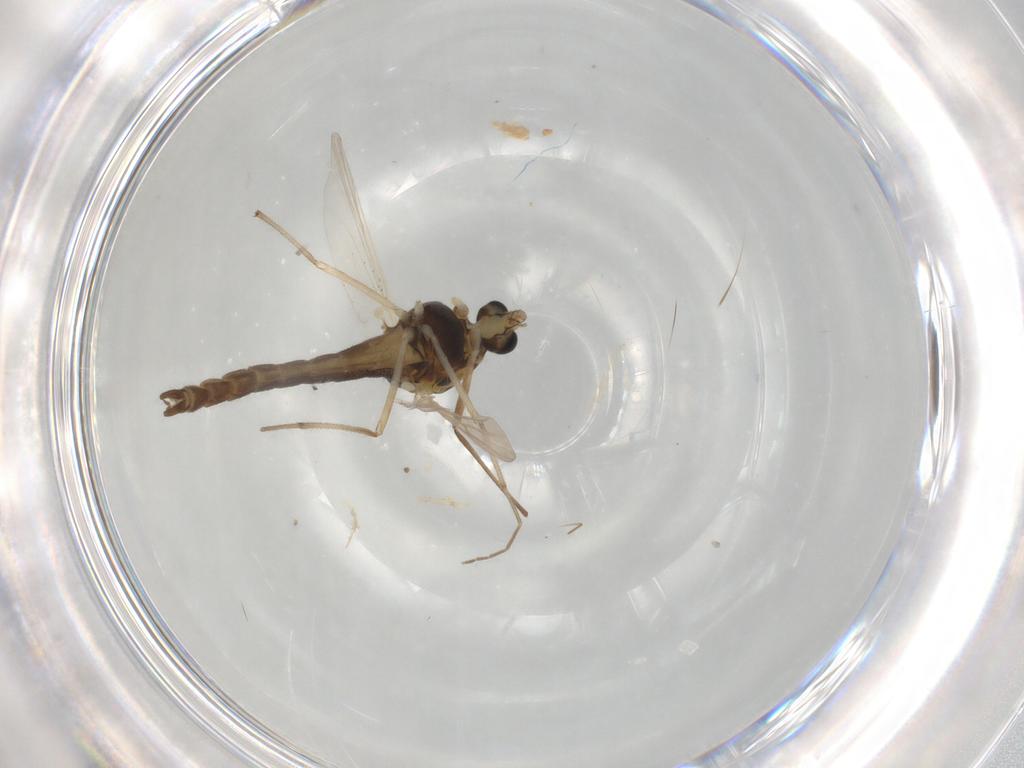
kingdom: Animalia
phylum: Arthropoda
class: Insecta
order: Diptera
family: Chironomidae
